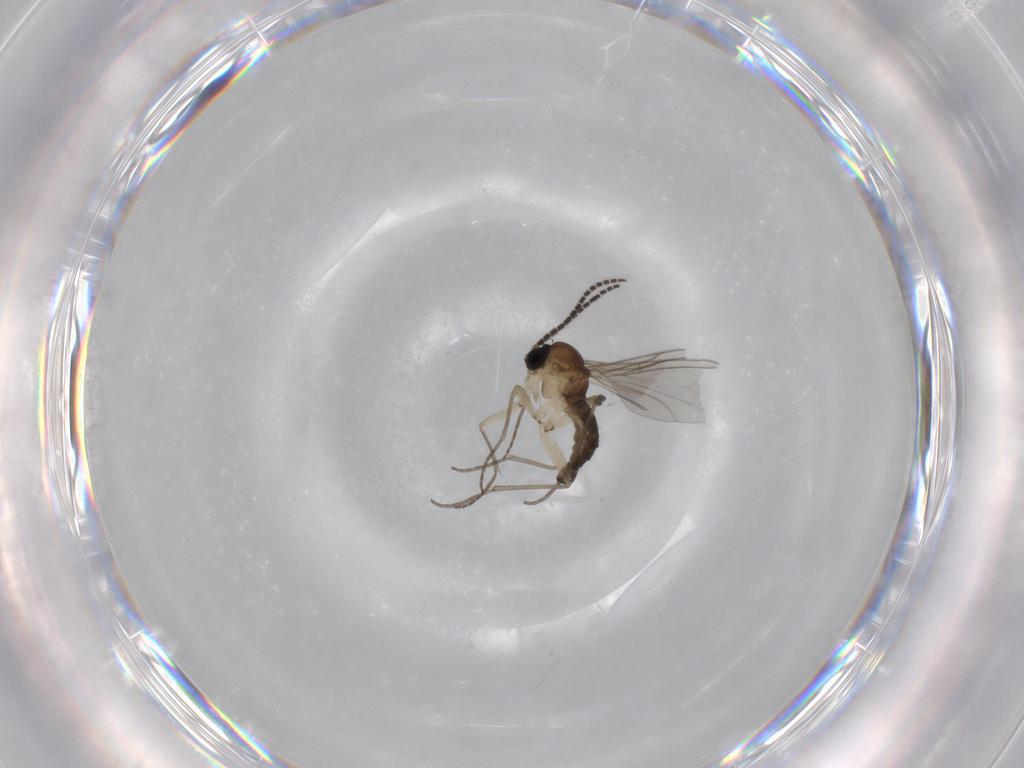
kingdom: Animalia
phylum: Arthropoda
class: Insecta
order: Diptera
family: Sciaridae
